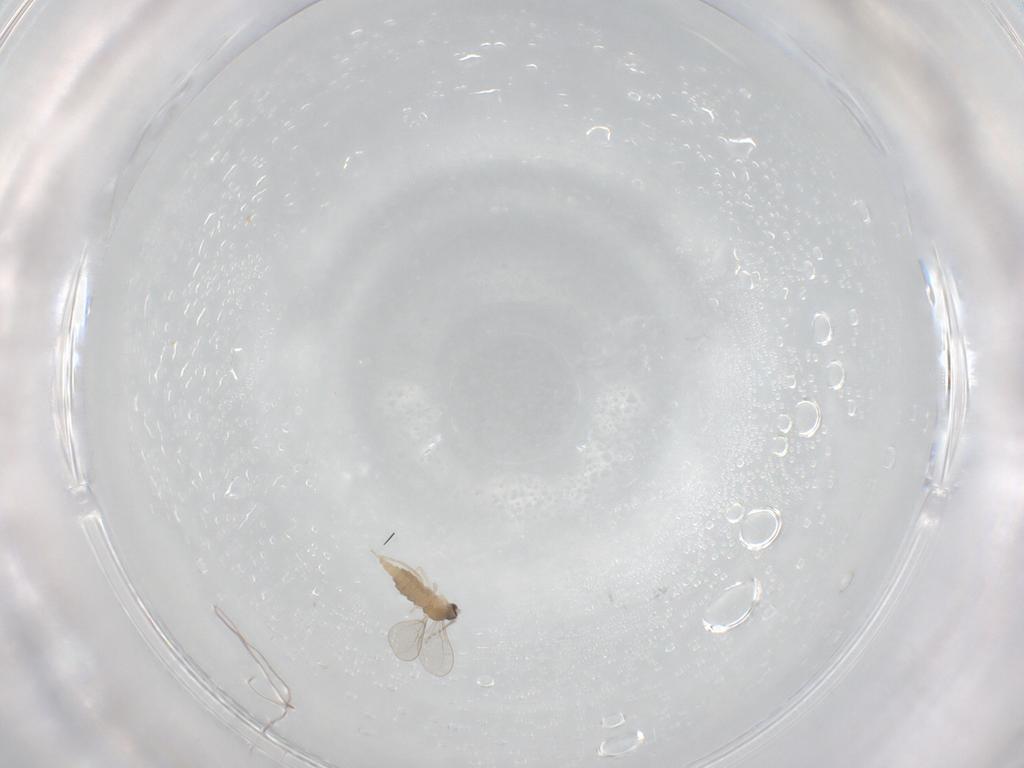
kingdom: Animalia
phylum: Arthropoda
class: Insecta
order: Diptera
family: Cecidomyiidae
